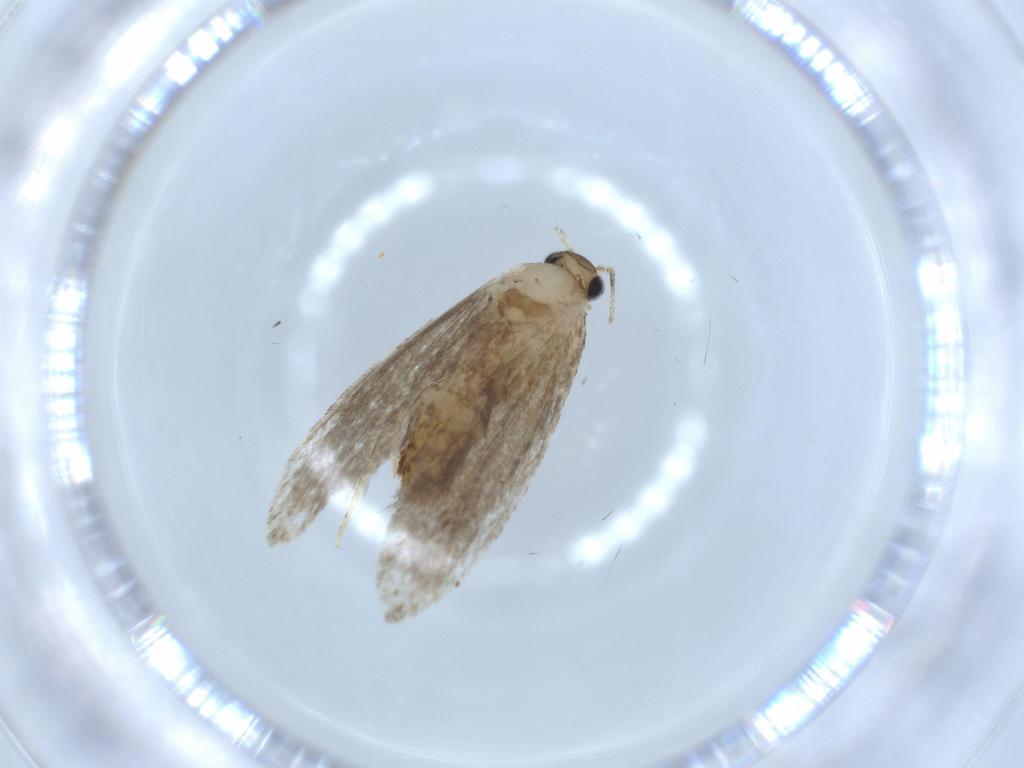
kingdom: Animalia
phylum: Arthropoda
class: Insecta
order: Lepidoptera
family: Tineidae
